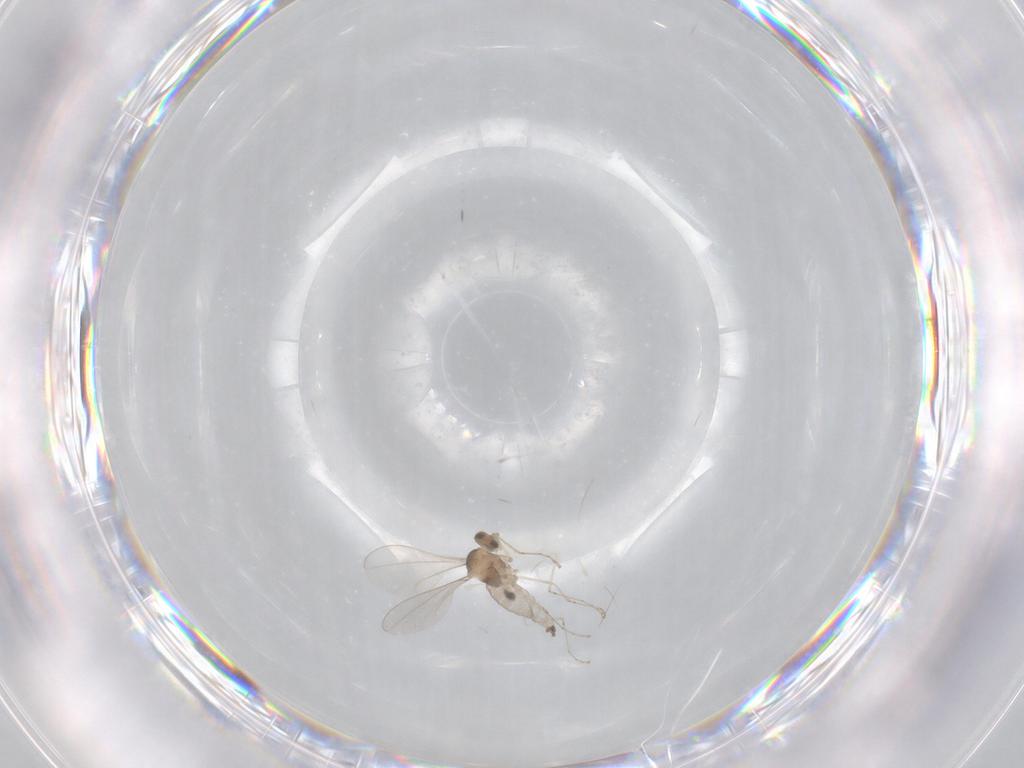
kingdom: Animalia
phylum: Arthropoda
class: Insecta
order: Diptera
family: Cecidomyiidae
